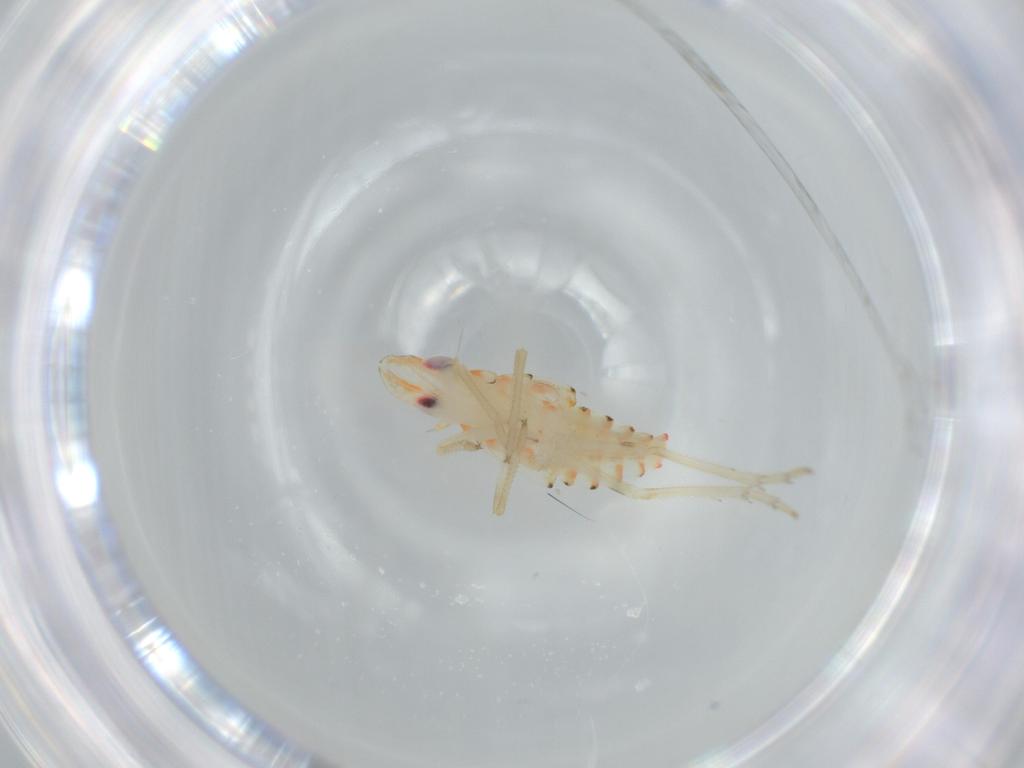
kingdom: Animalia
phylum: Arthropoda
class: Insecta
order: Hemiptera
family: Tropiduchidae
